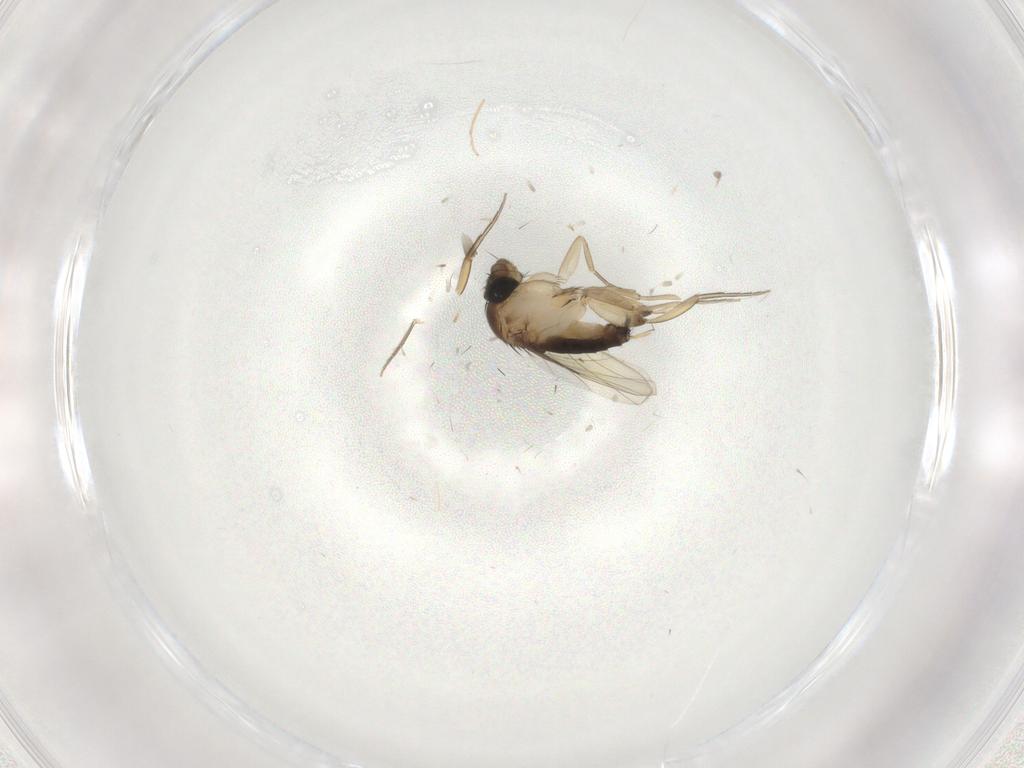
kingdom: Animalia
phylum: Arthropoda
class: Insecta
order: Diptera
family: Phoridae
